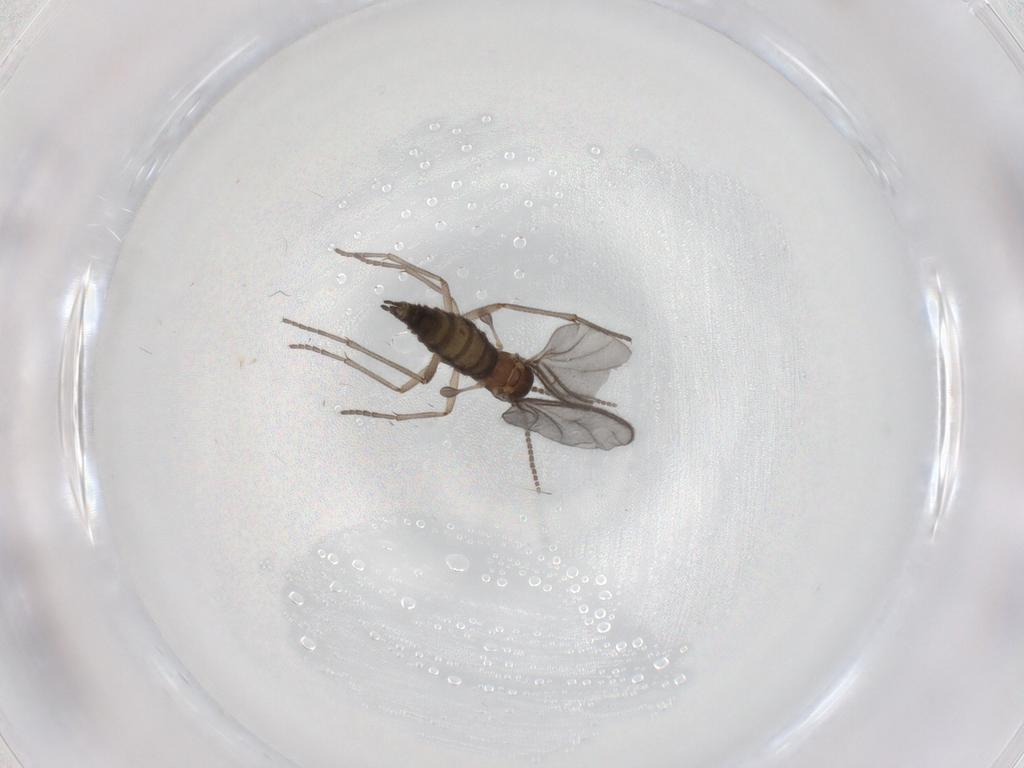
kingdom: Animalia
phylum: Arthropoda
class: Insecta
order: Diptera
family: Sciaridae
